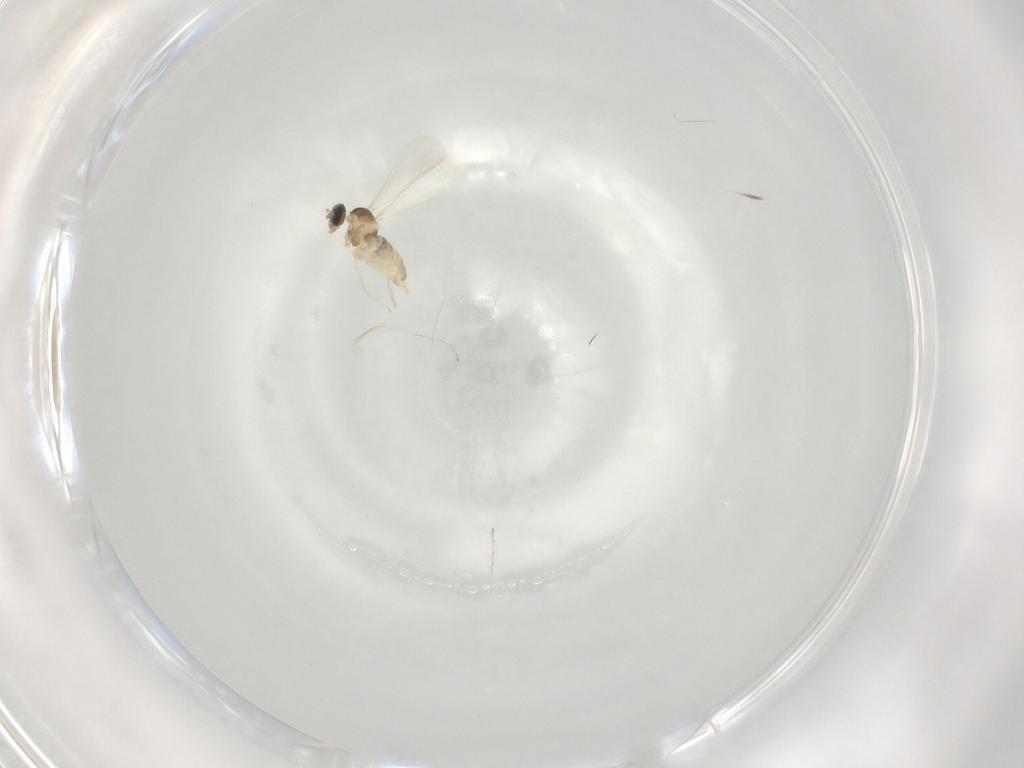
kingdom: Animalia
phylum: Arthropoda
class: Insecta
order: Diptera
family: Cecidomyiidae
